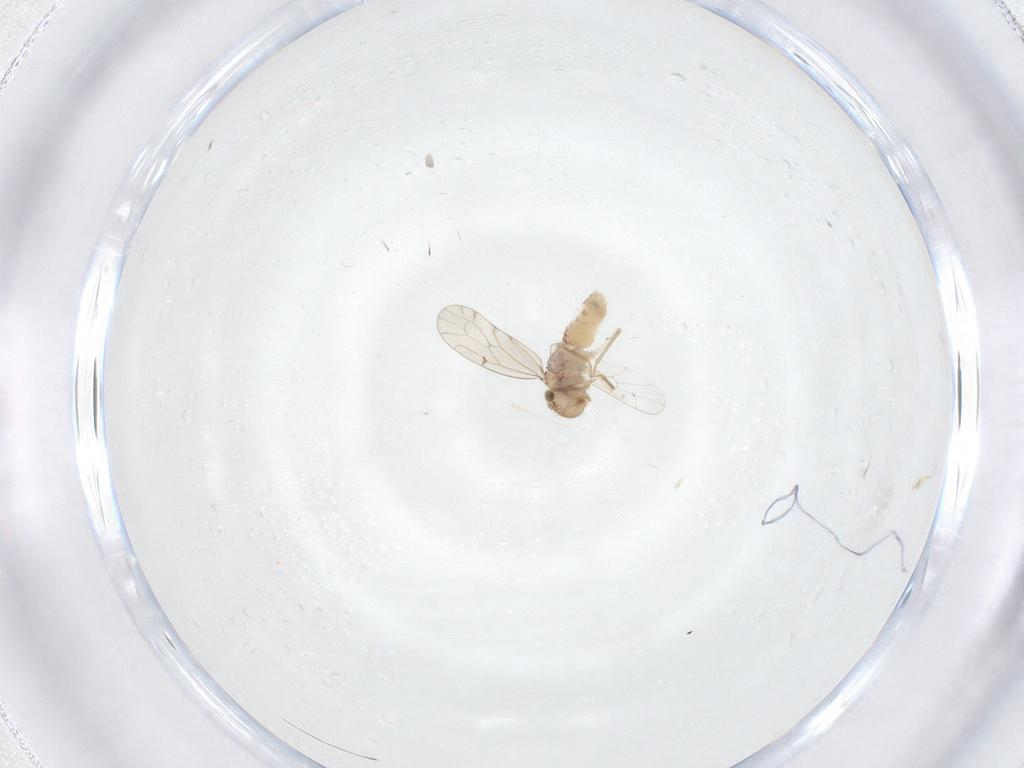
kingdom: Animalia
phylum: Arthropoda
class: Insecta
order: Psocodea
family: Ectopsocidae
